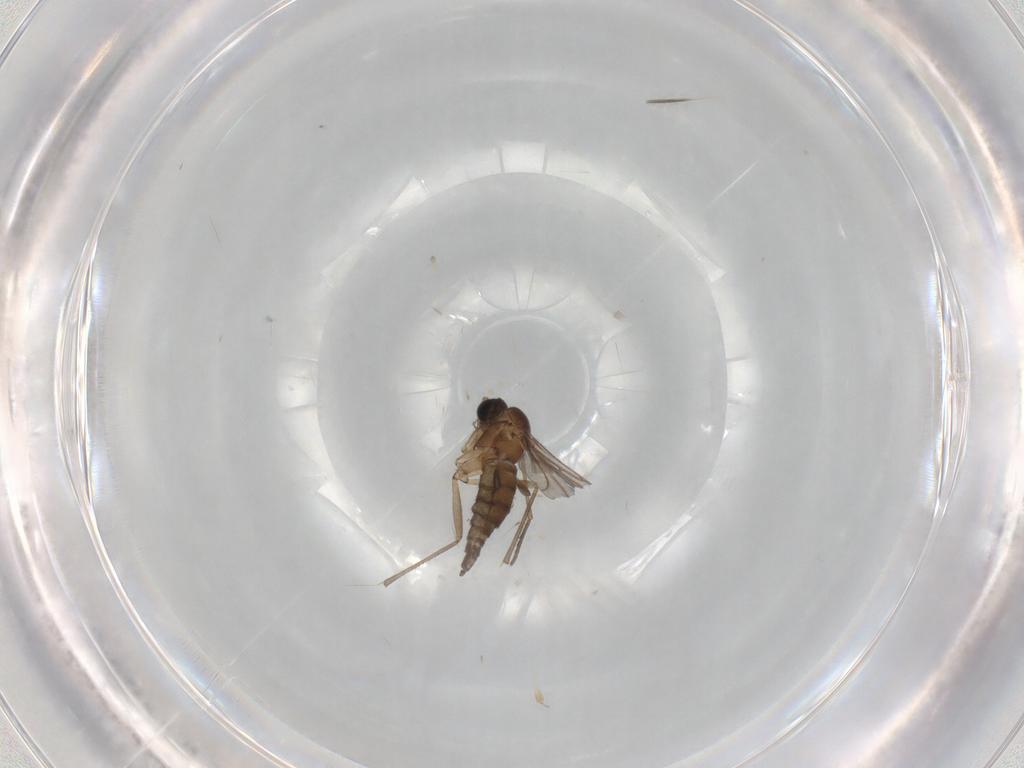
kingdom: Animalia
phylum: Arthropoda
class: Insecta
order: Diptera
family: Sciaridae
